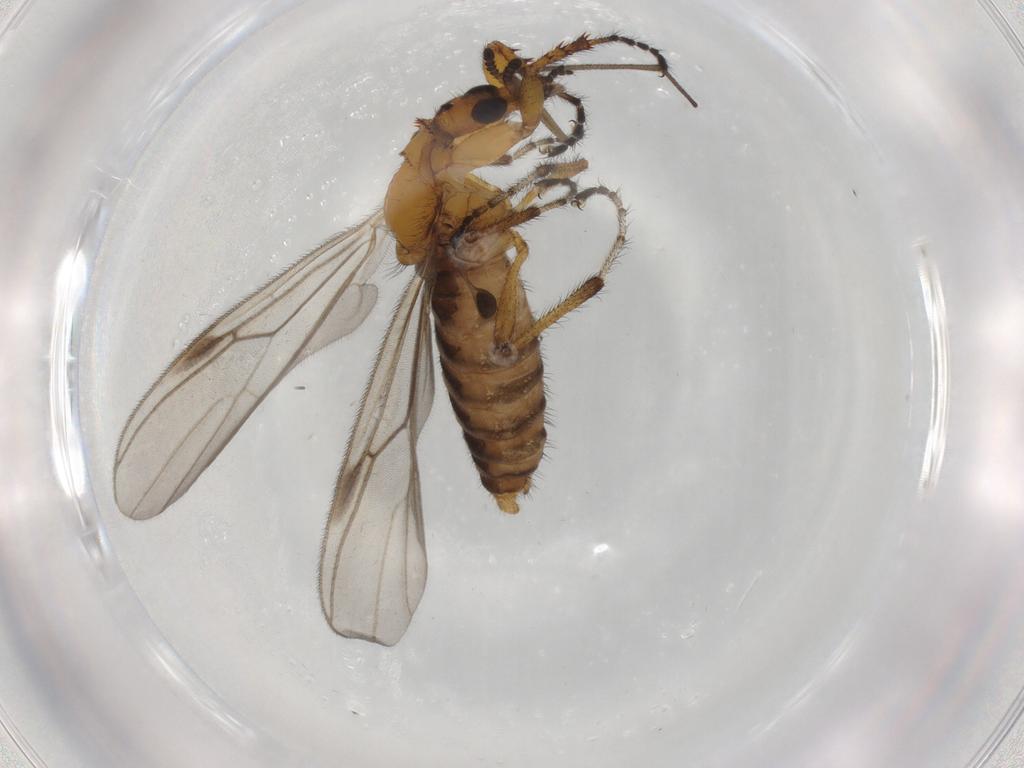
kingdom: Animalia
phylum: Arthropoda
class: Insecta
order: Diptera
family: Bibionidae
